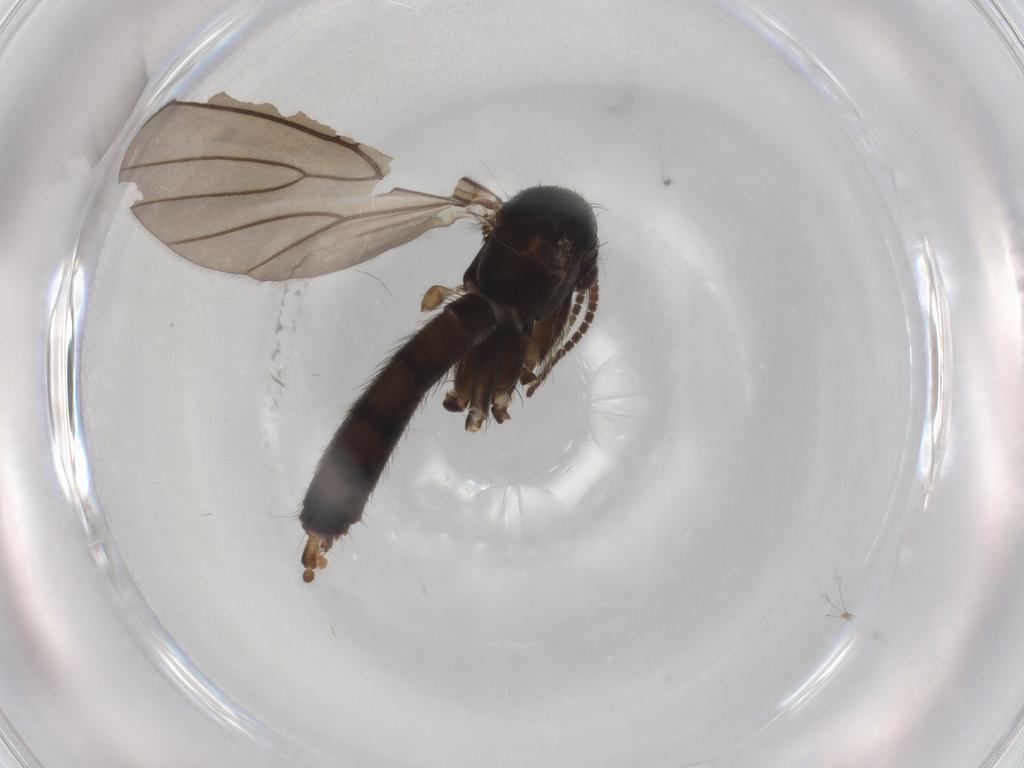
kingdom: Animalia
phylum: Arthropoda
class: Insecta
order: Diptera
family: Mycetophilidae
